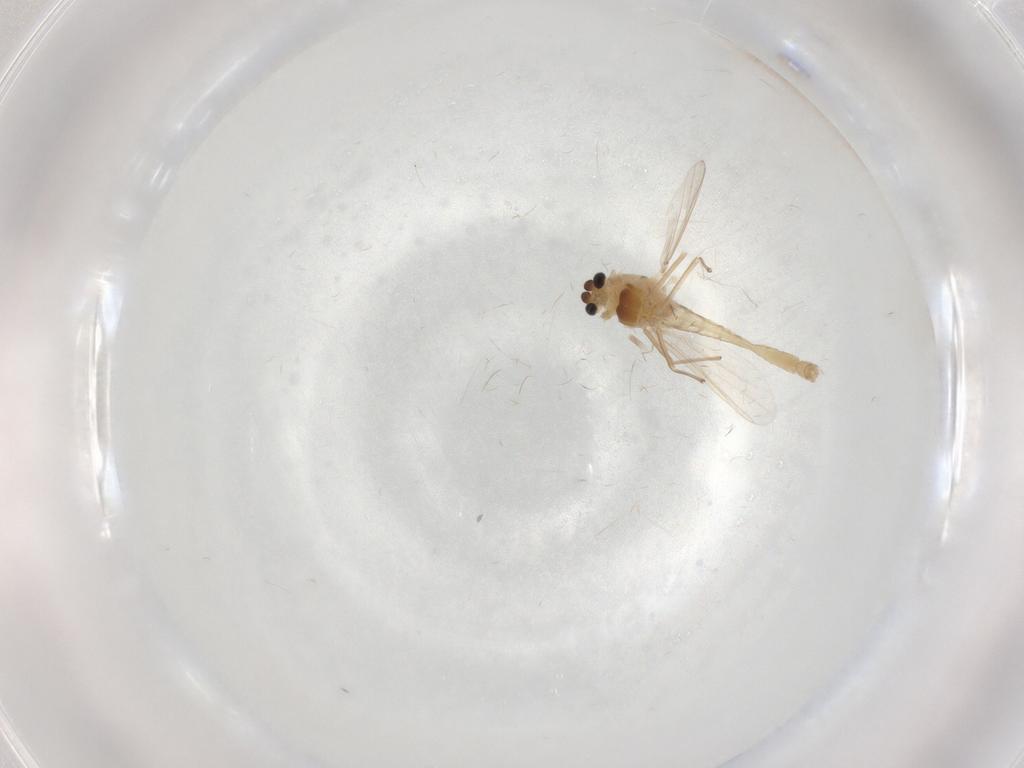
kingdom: Animalia
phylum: Arthropoda
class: Insecta
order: Diptera
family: Chironomidae
